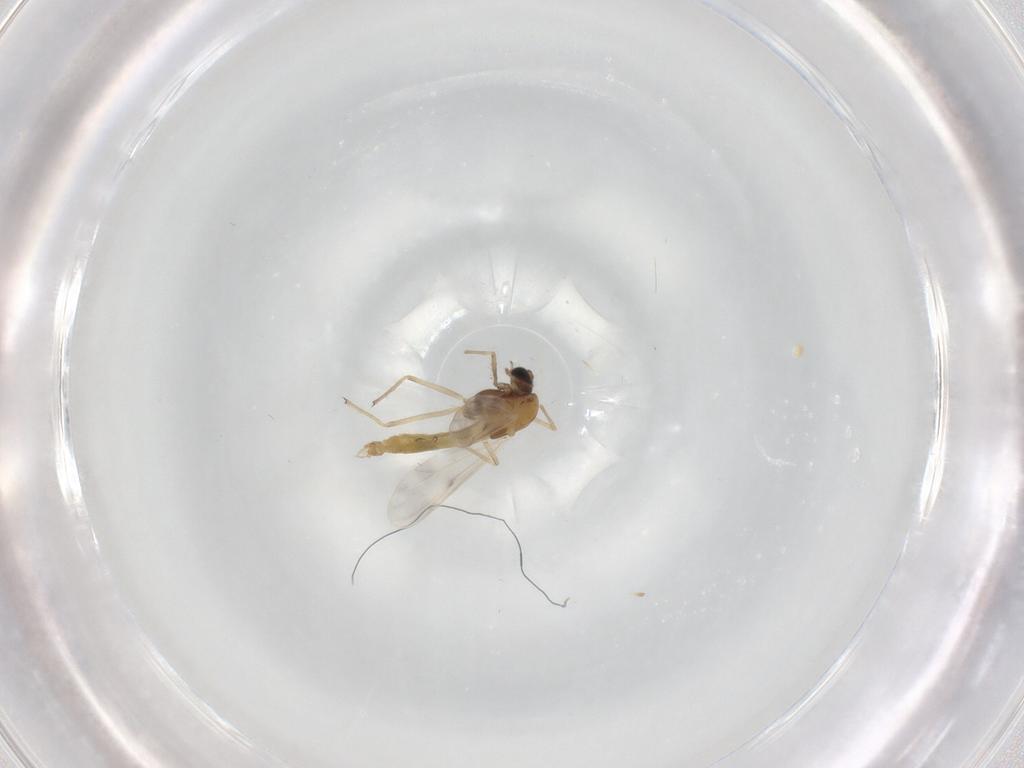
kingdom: Animalia
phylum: Arthropoda
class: Insecta
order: Diptera
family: Chironomidae
